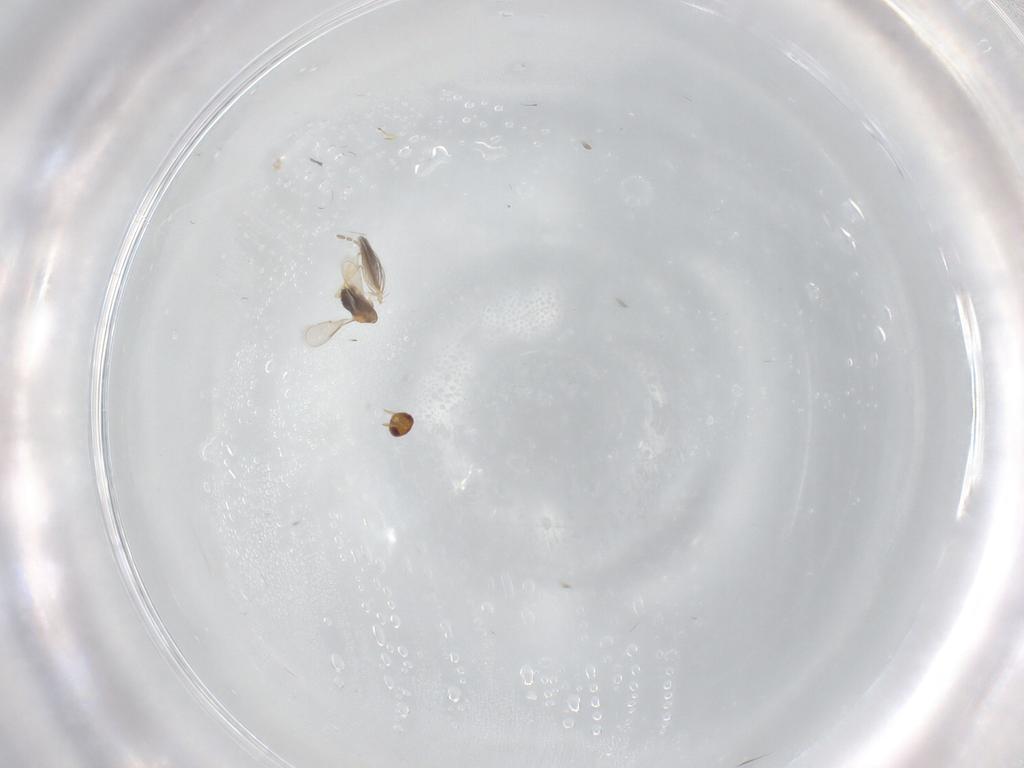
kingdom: Animalia
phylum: Arthropoda
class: Insecta
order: Hymenoptera
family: Aphelinidae
